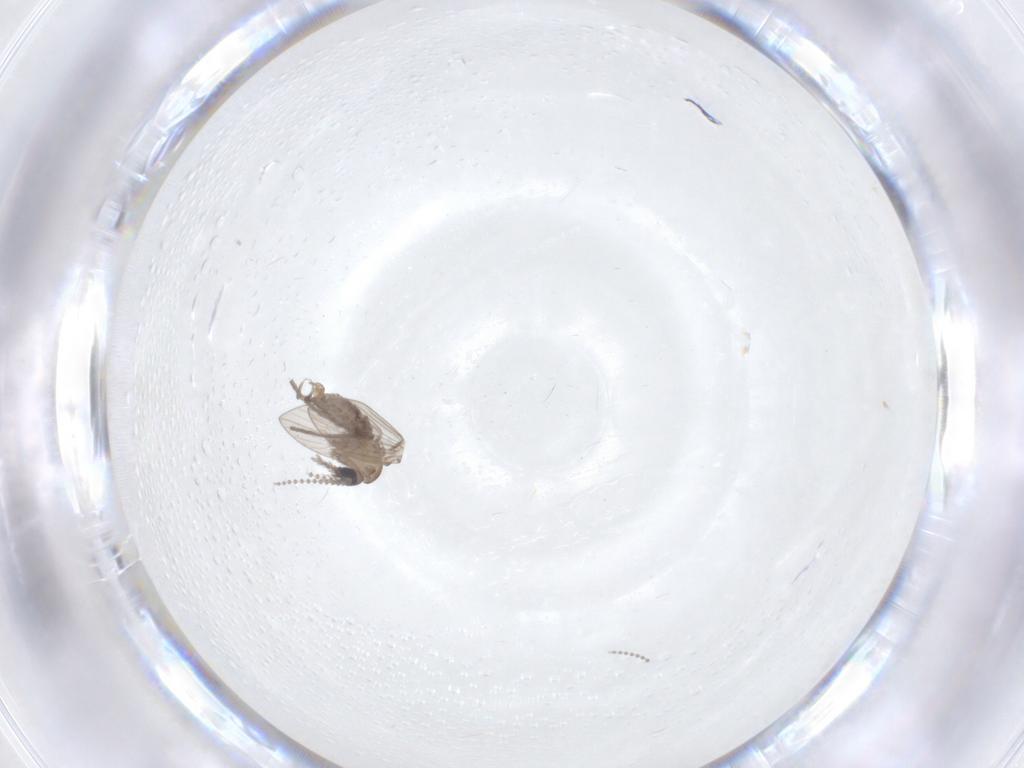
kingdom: Animalia
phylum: Arthropoda
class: Insecta
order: Diptera
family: Psychodidae
